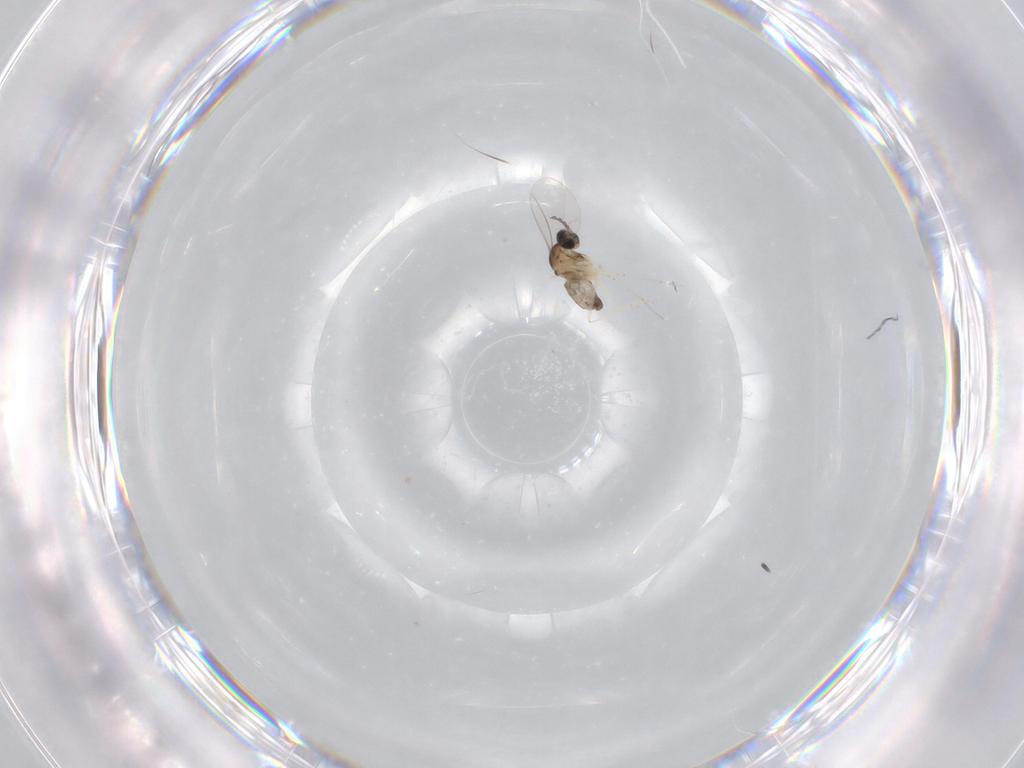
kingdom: Animalia
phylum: Arthropoda
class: Insecta
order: Diptera
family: Cecidomyiidae
